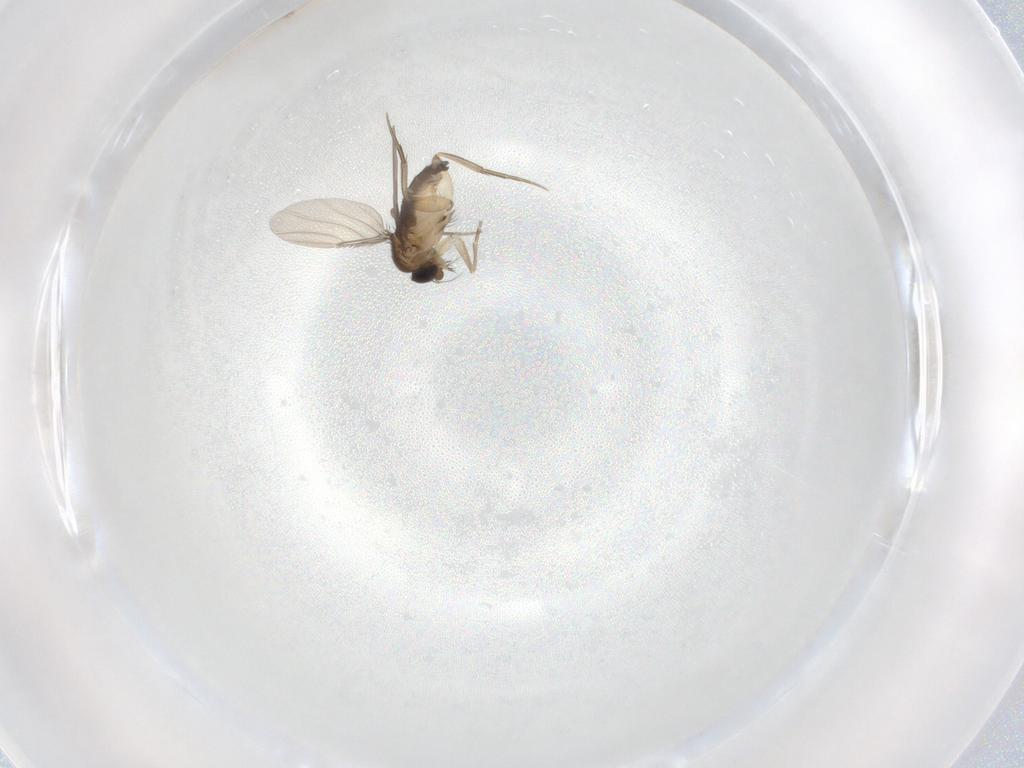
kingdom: Animalia
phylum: Arthropoda
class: Insecta
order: Diptera
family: Phoridae
